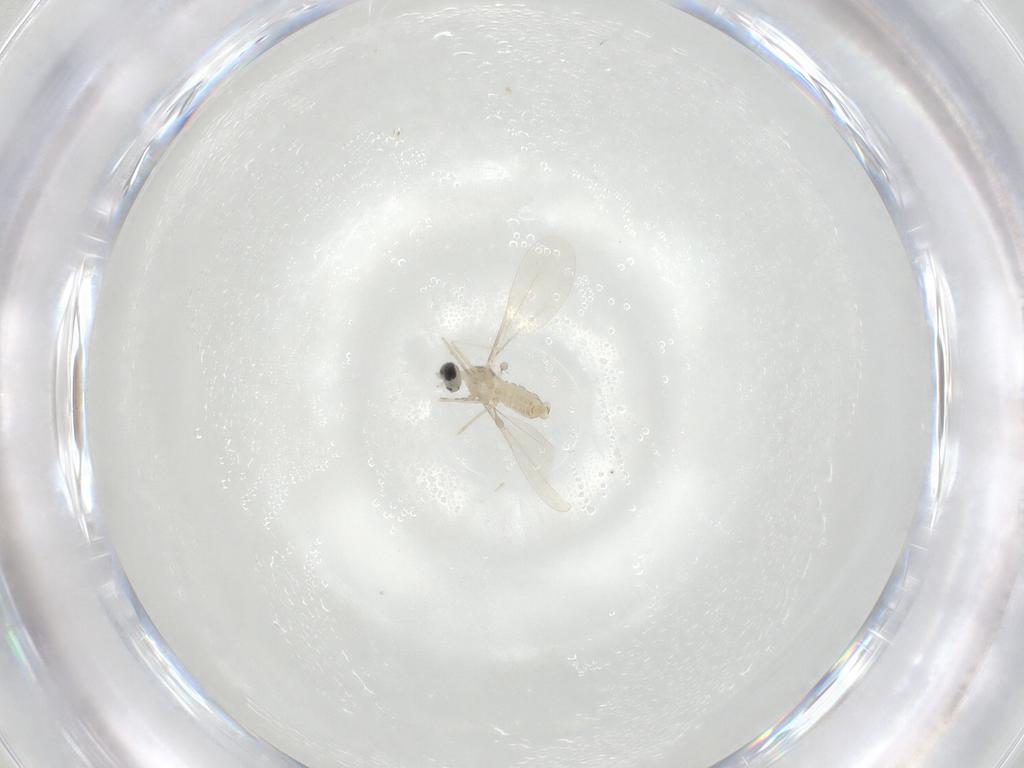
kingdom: Animalia
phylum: Arthropoda
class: Insecta
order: Diptera
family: Cecidomyiidae
